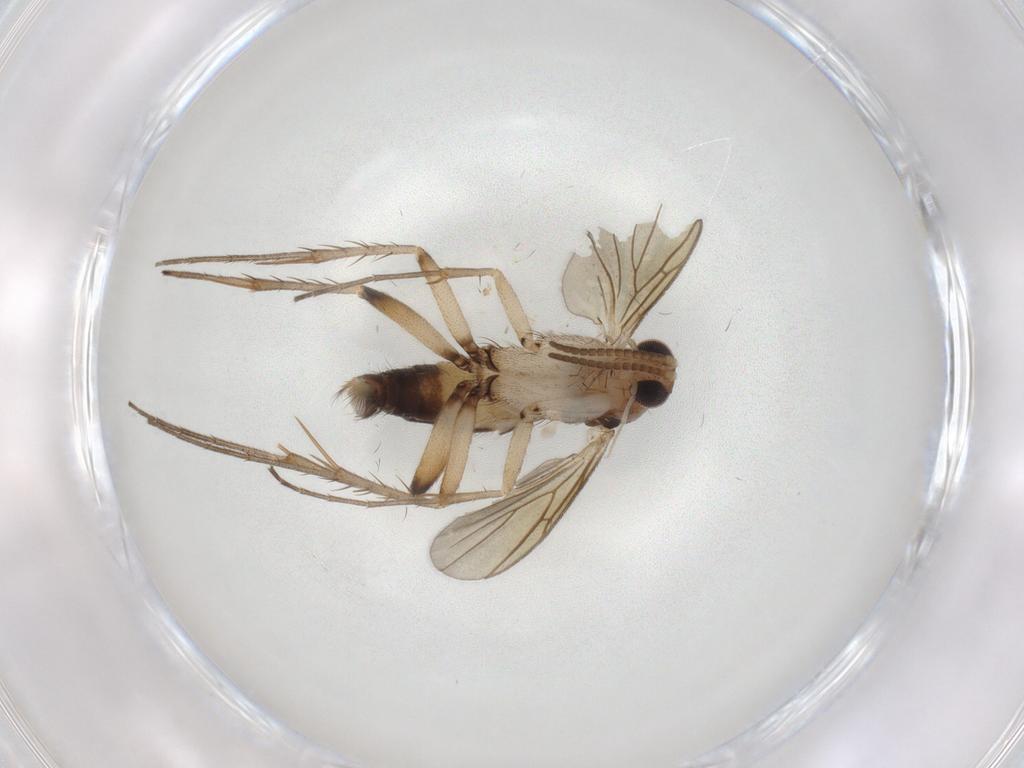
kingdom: Animalia
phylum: Arthropoda
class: Insecta
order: Diptera
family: Mycetophilidae
